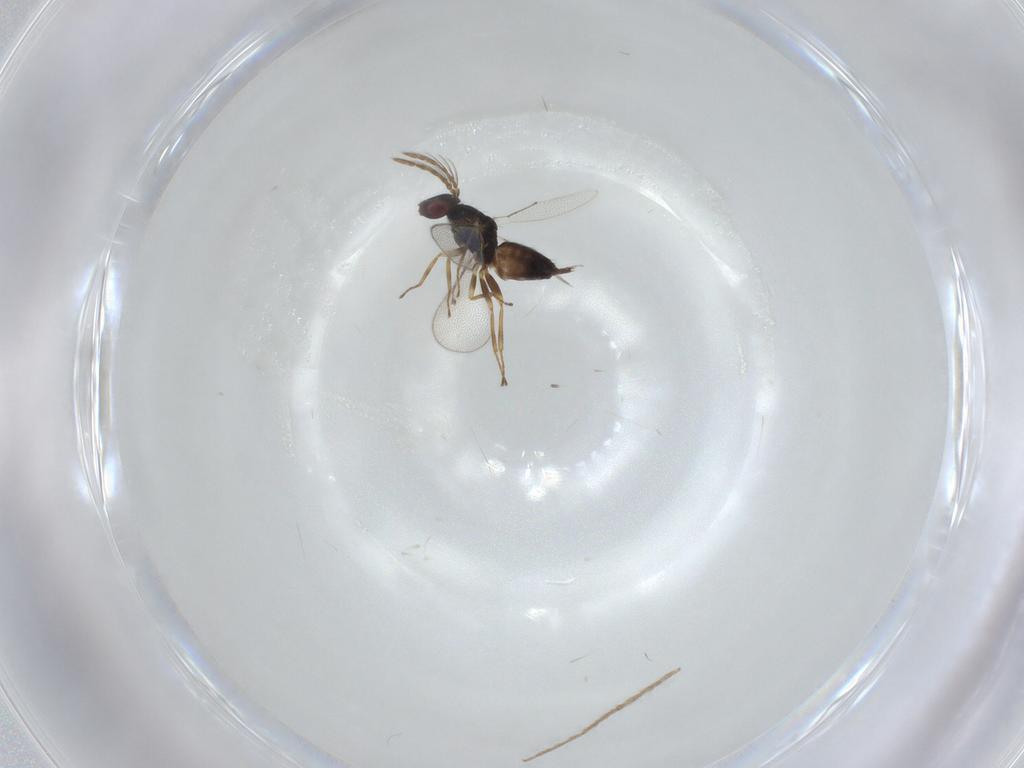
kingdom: Animalia
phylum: Arthropoda
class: Insecta
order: Hymenoptera
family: Eulophidae
